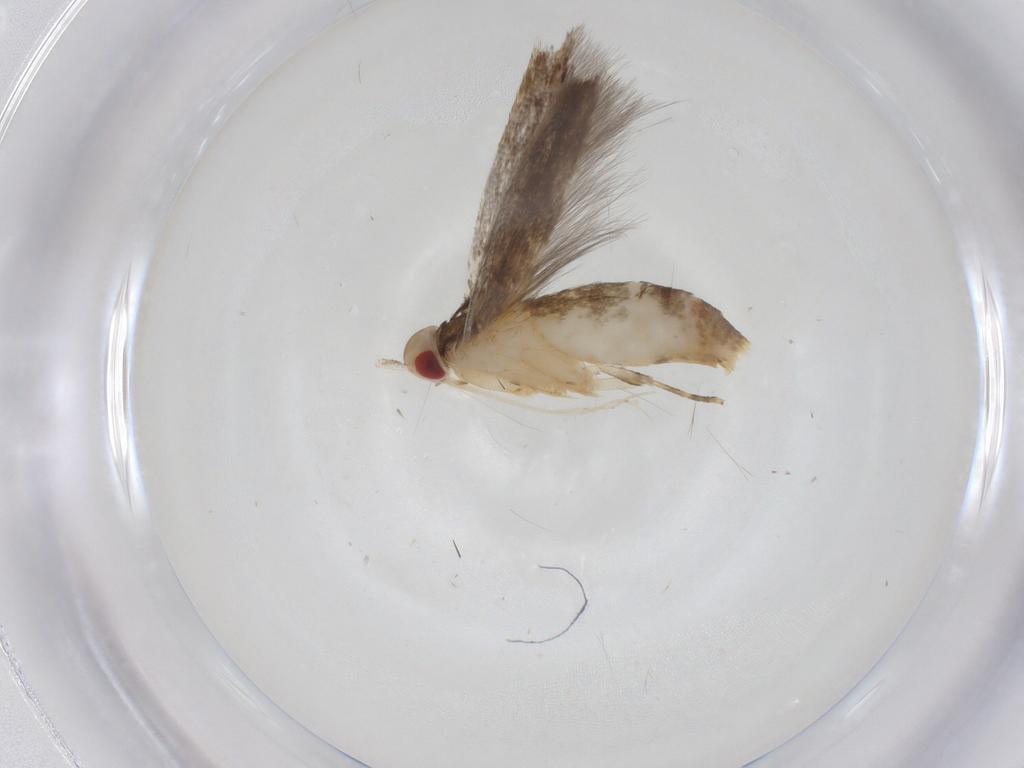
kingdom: Animalia
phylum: Arthropoda
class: Insecta
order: Lepidoptera
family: Cosmopterigidae
